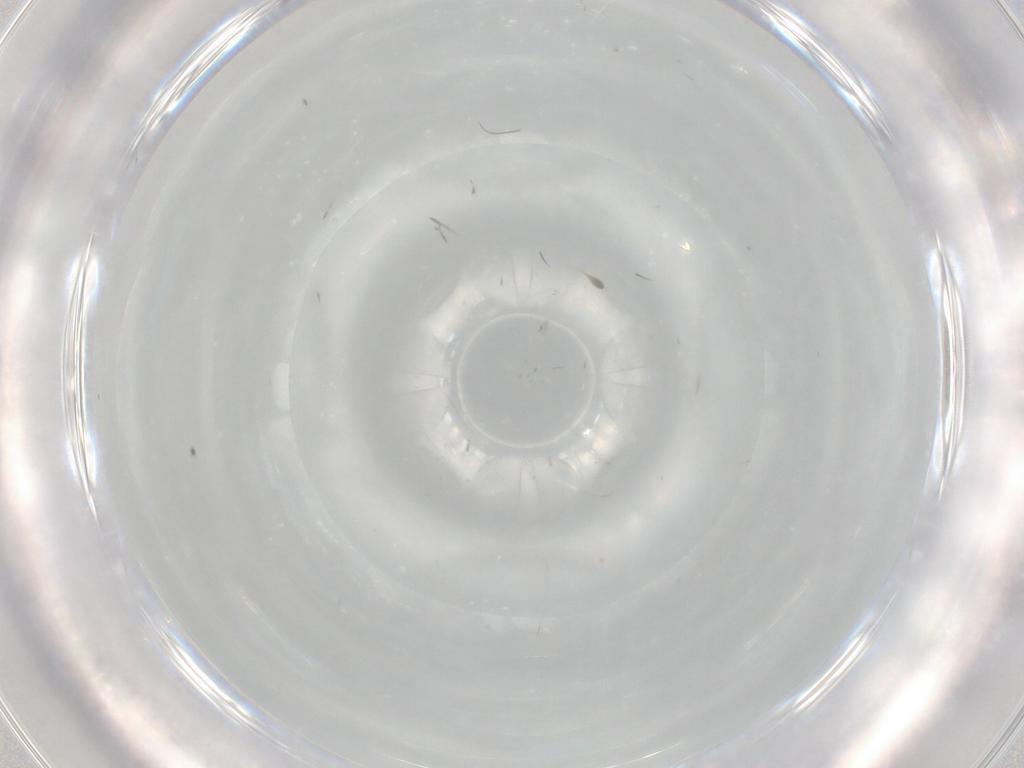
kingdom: Animalia
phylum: Arthropoda
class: Insecta
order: Diptera
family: Cecidomyiidae
